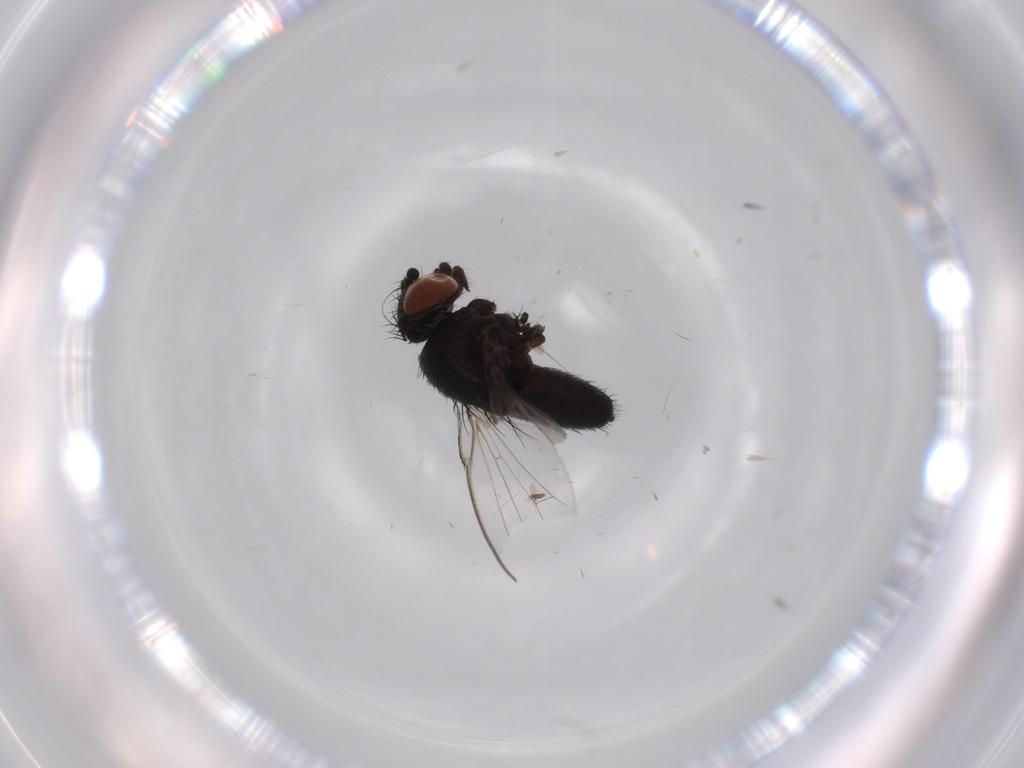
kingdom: Animalia
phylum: Arthropoda
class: Insecta
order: Diptera
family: Milichiidae
